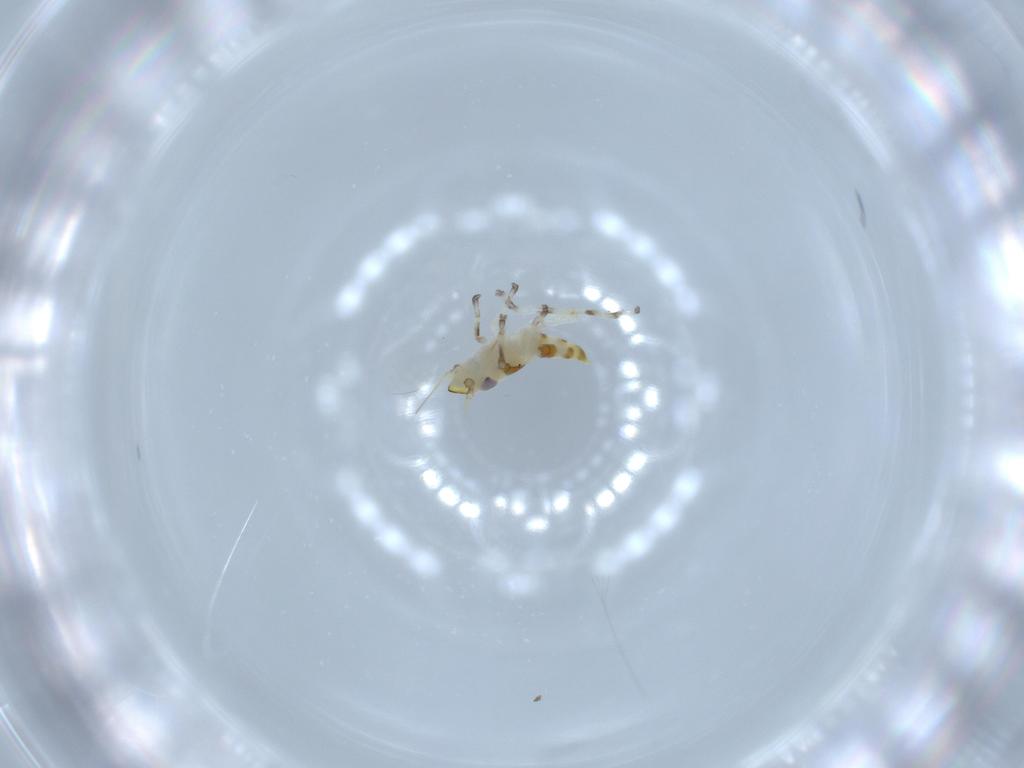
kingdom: Animalia
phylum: Arthropoda
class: Insecta
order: Hemiptera
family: Cicadellidae
